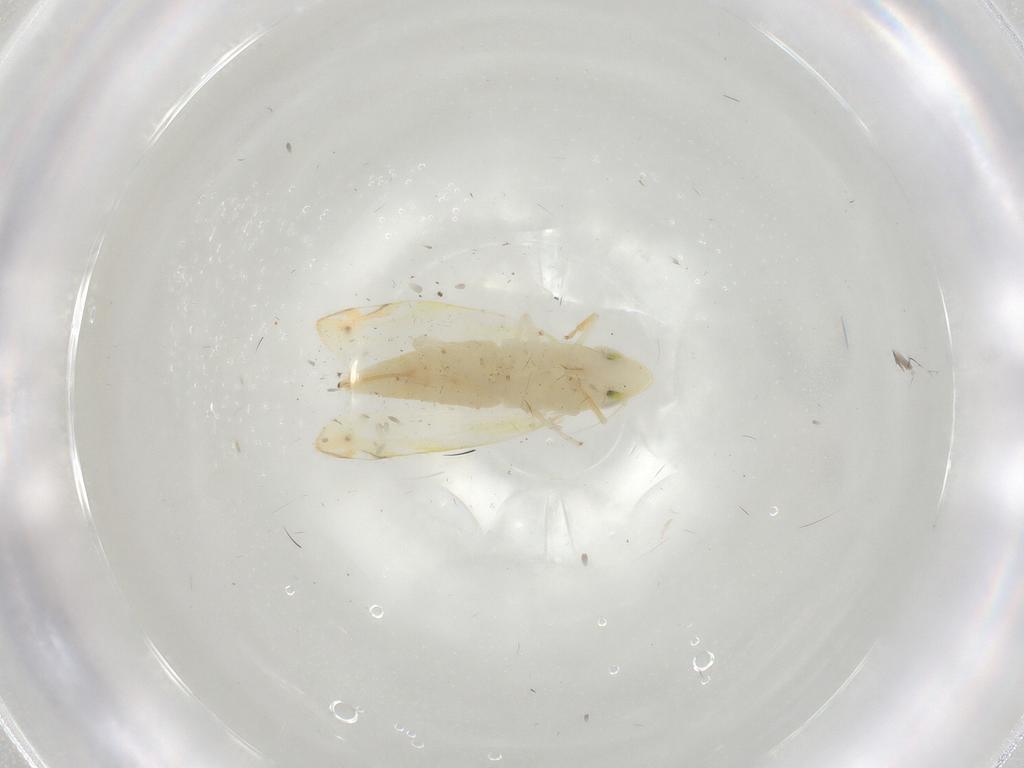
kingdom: Animalia
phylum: Arthropoda
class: Insecta
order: Hemiptera
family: Cicadellidae
